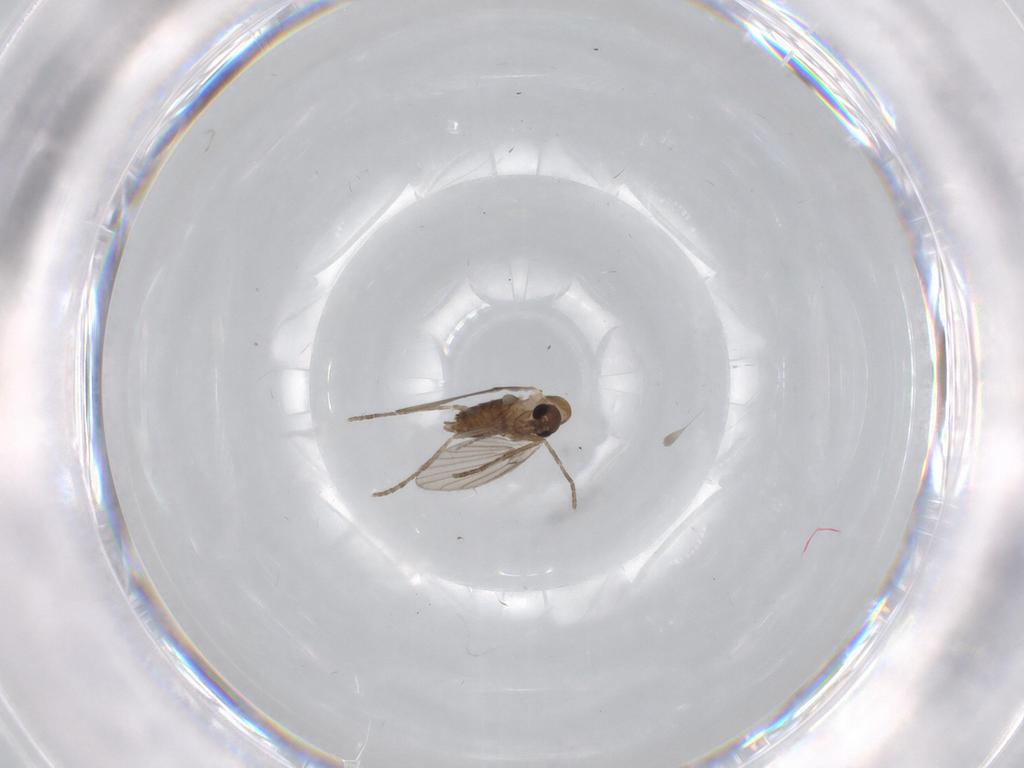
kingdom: Animalia
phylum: Arthropoda
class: Insecta
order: Diptera
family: Psychodidae
